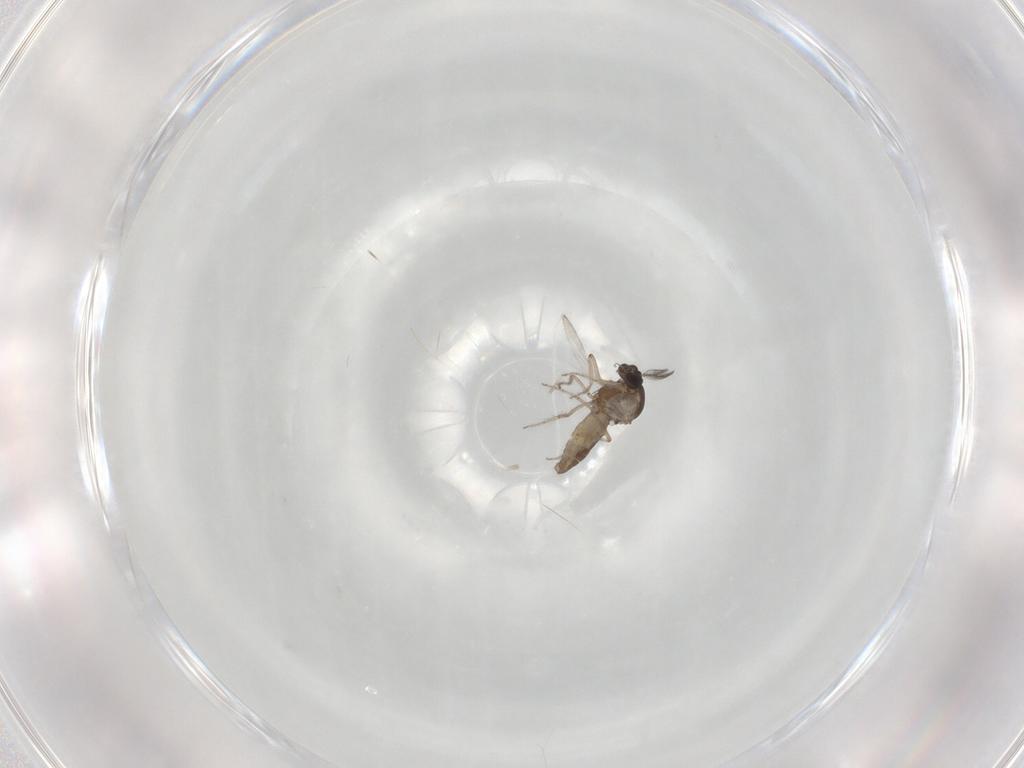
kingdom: Animalia
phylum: Arthropoda
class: Insecta
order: Diptera
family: Ceratopogonidae
